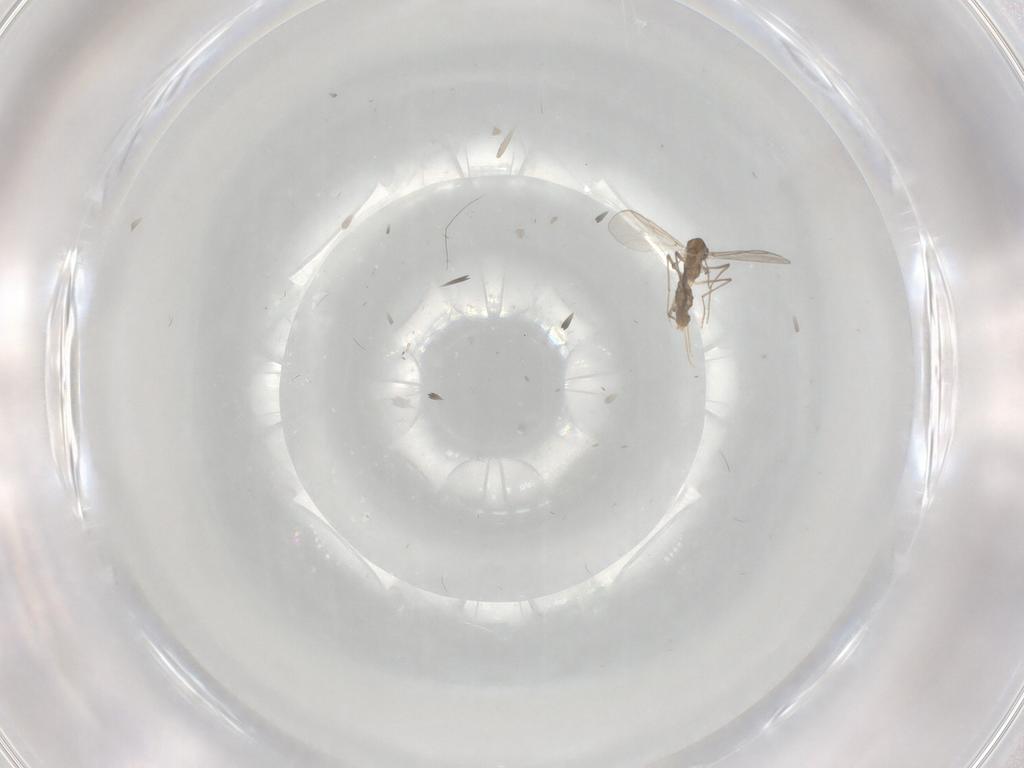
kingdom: Animalia
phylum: Arthropoda
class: Insecta
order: Diptera
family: Chironomidae
